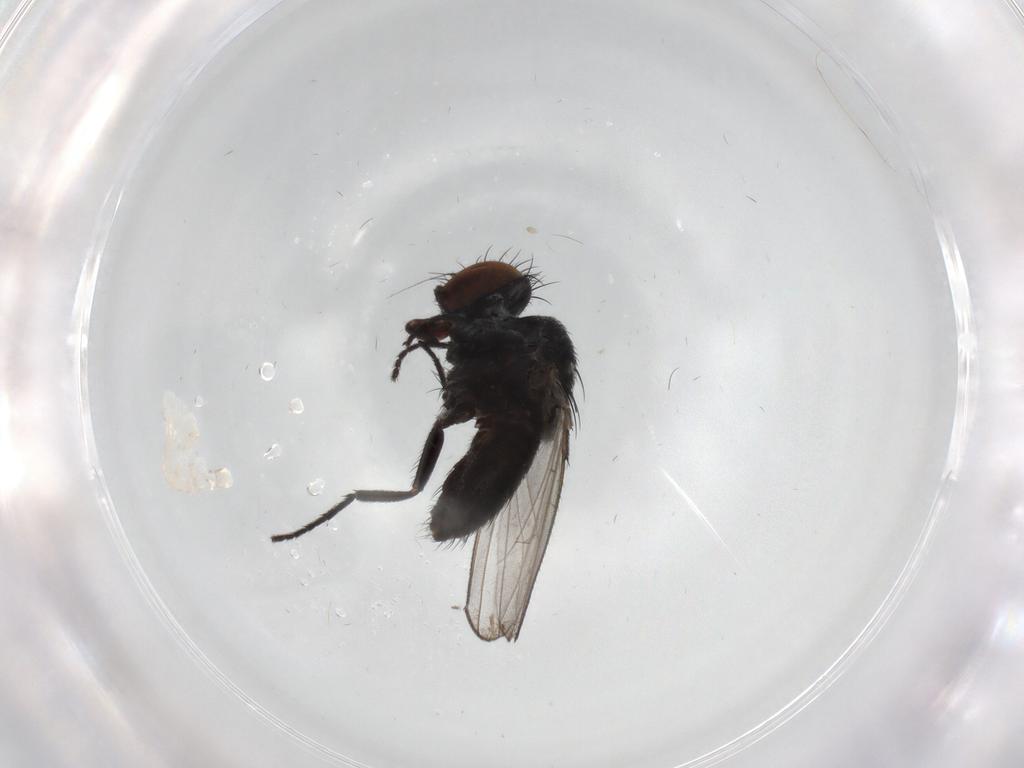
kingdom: Animalia
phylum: Arthropoda
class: Insecta
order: Diptera
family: Milichiidae
